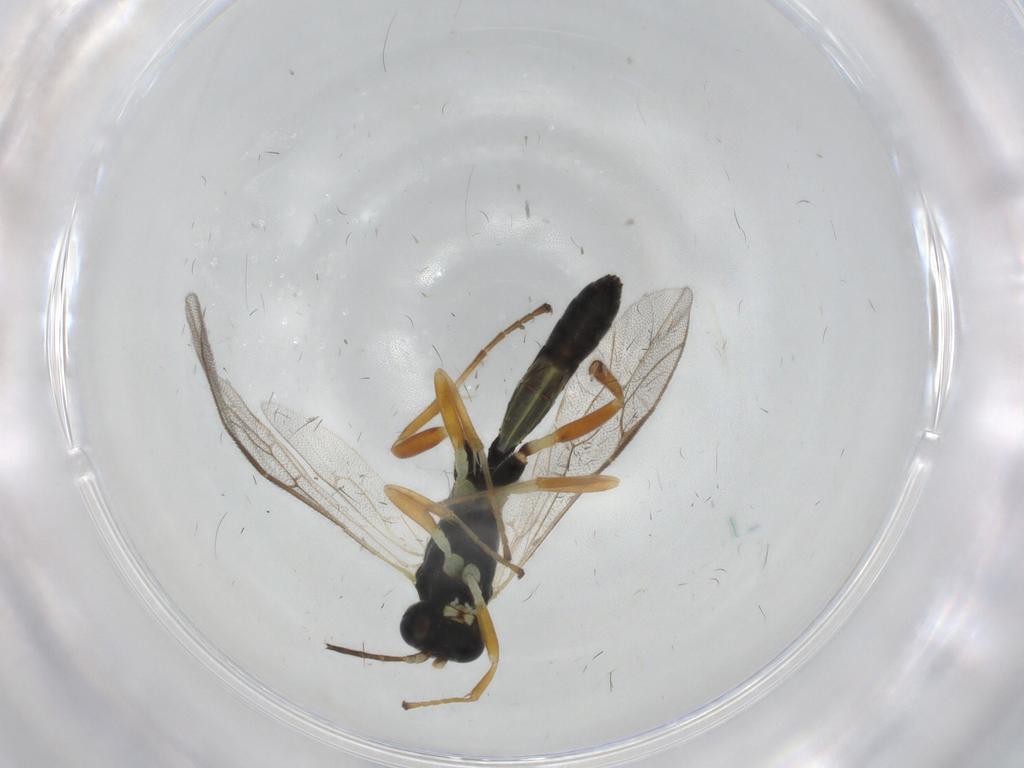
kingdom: Animalia
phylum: Arthropoda
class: Insecta
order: Hymenoptera
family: Ichneumonidae
